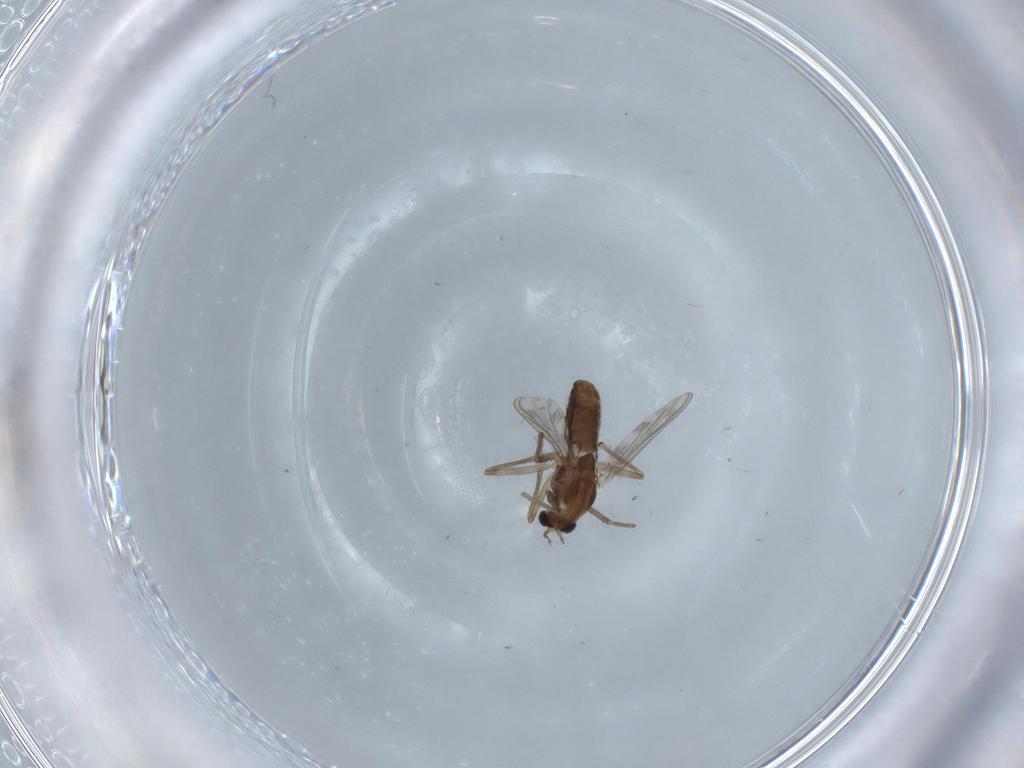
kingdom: Animalia
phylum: Arthropoda
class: Insecta
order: Diptera
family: Chironomidae
